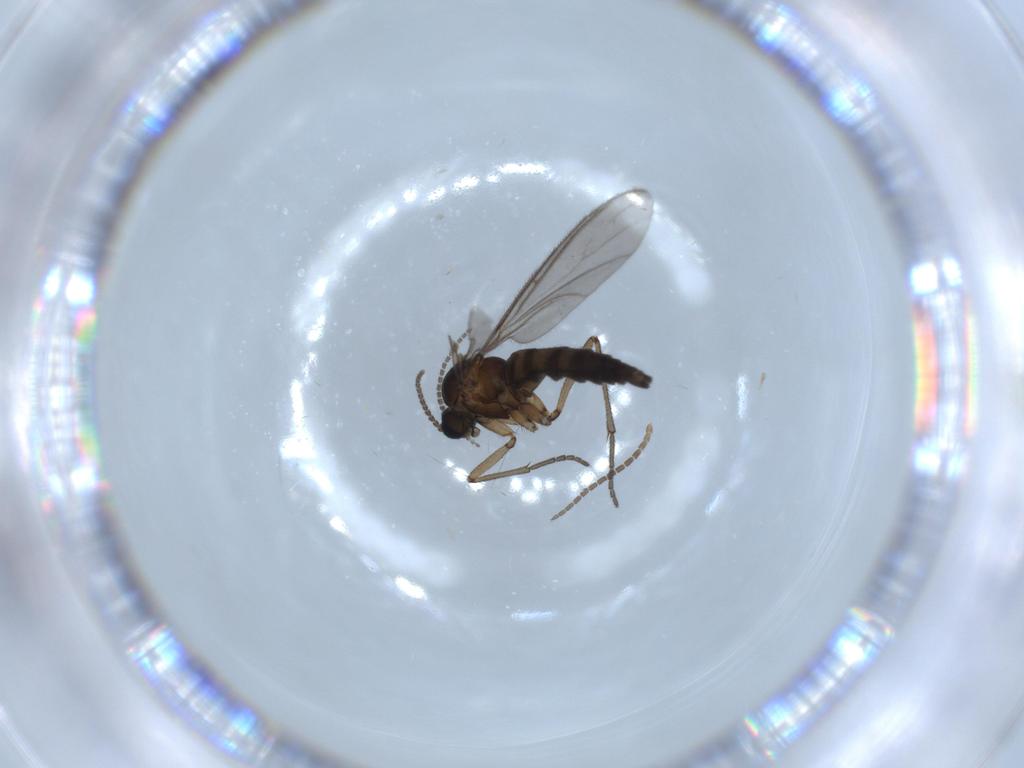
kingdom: Animalia
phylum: Arthropoda
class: Insecta
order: Diptera
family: Sciaridae
